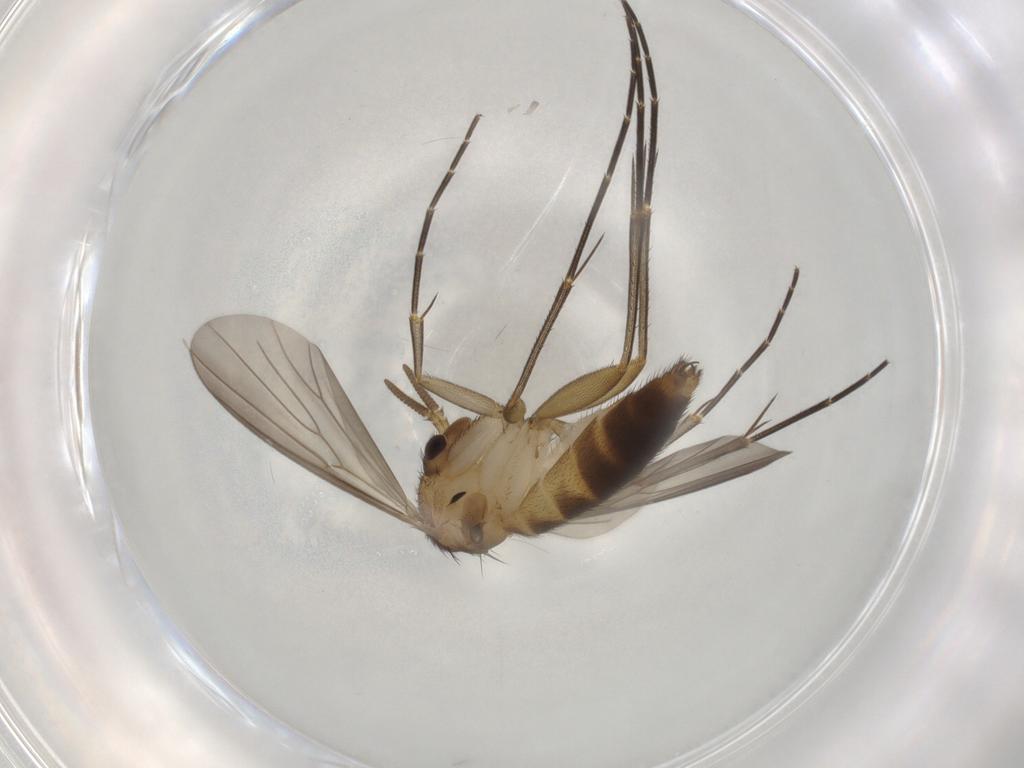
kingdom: Animalia
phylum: Arthropoda
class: Insecta
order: Diptera
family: Mycetophilidae
